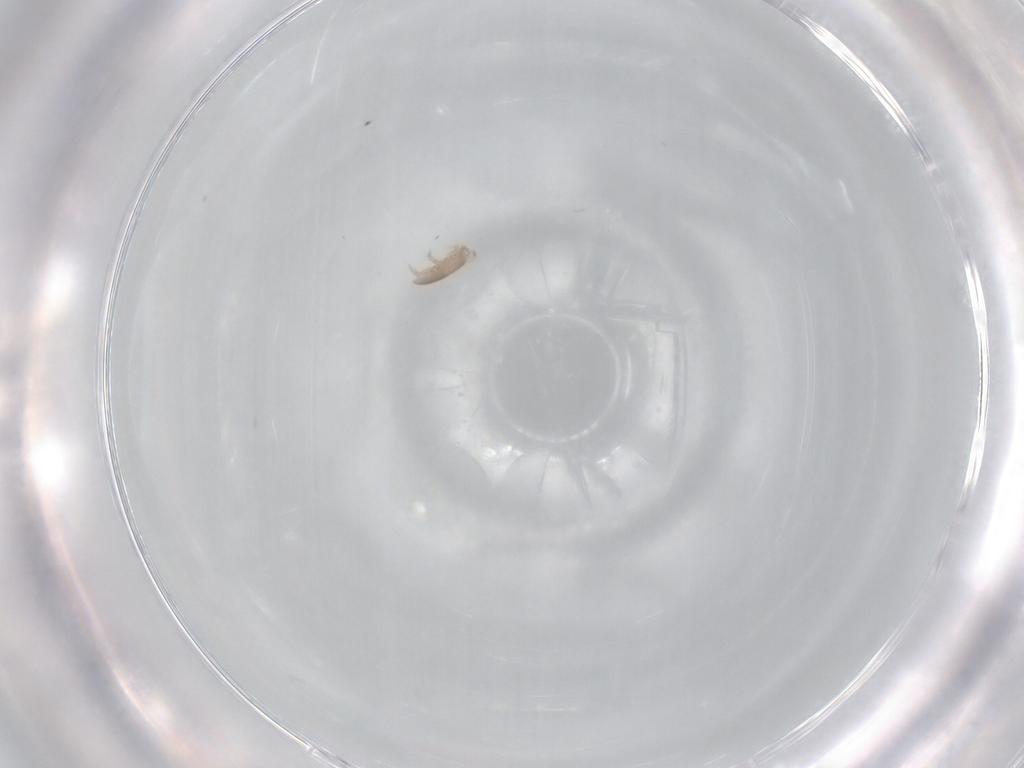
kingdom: Animalia
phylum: Arthropoda
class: Arachnida
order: Mesostigmata
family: Laelapidae
